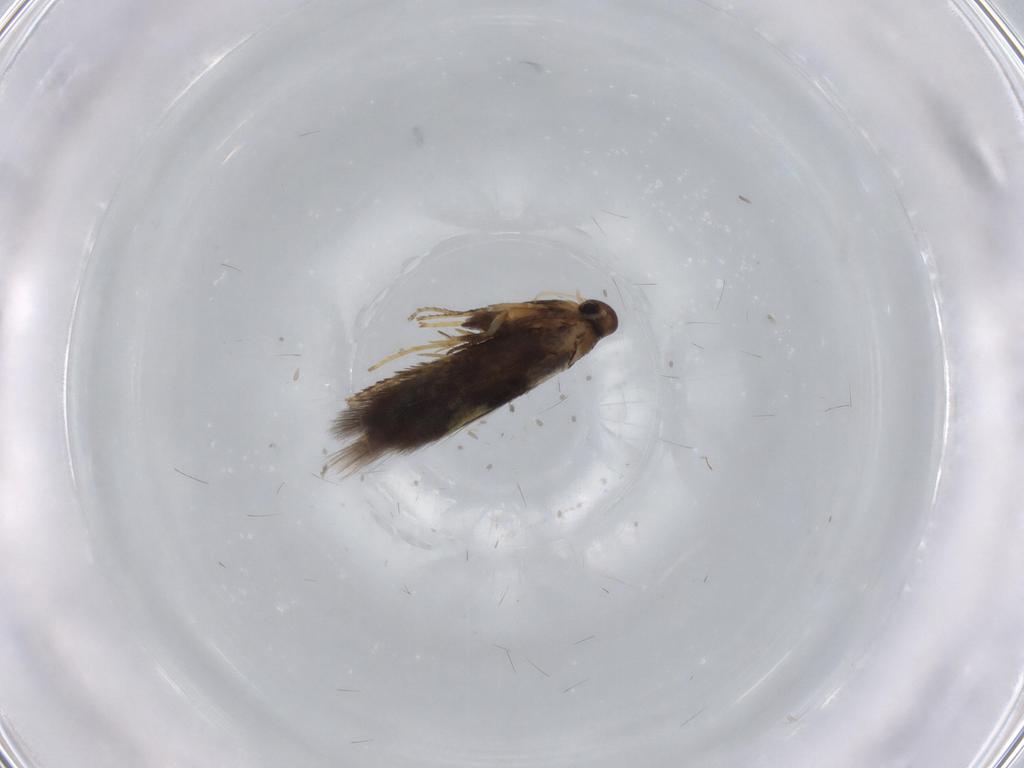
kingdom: Animalia
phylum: Arthropoda
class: Insecta
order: Lepidoptera
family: Heliozelidae
